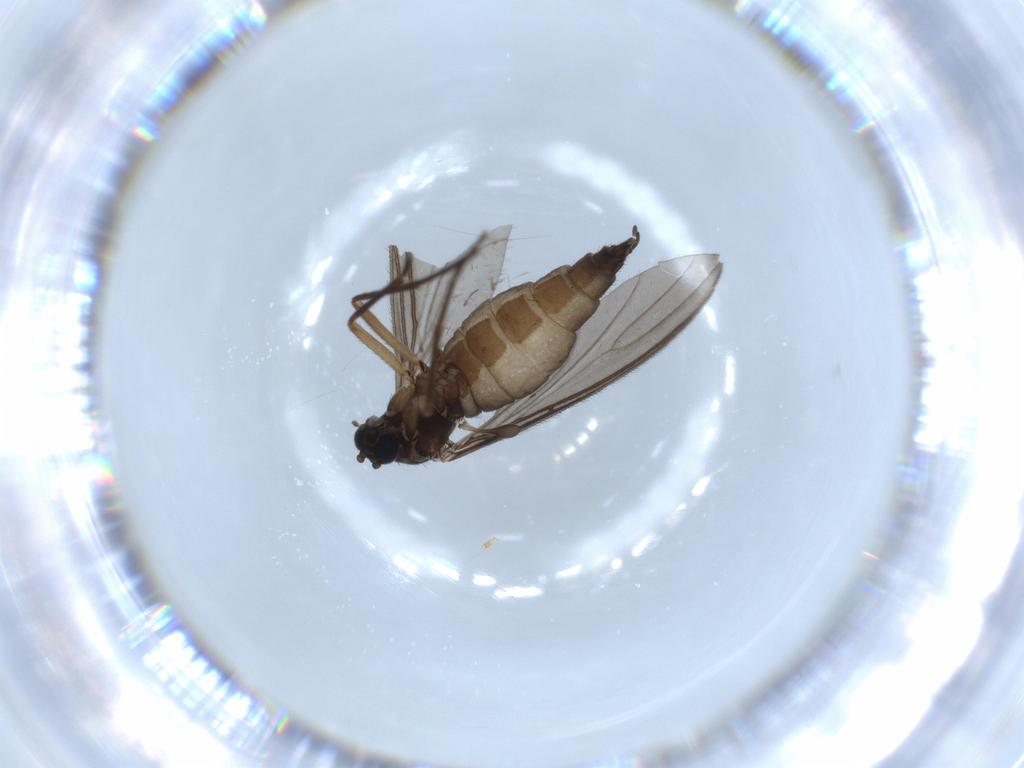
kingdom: Animalia
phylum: Arthropoda
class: Insecta
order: Diptera
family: Sciaridae
